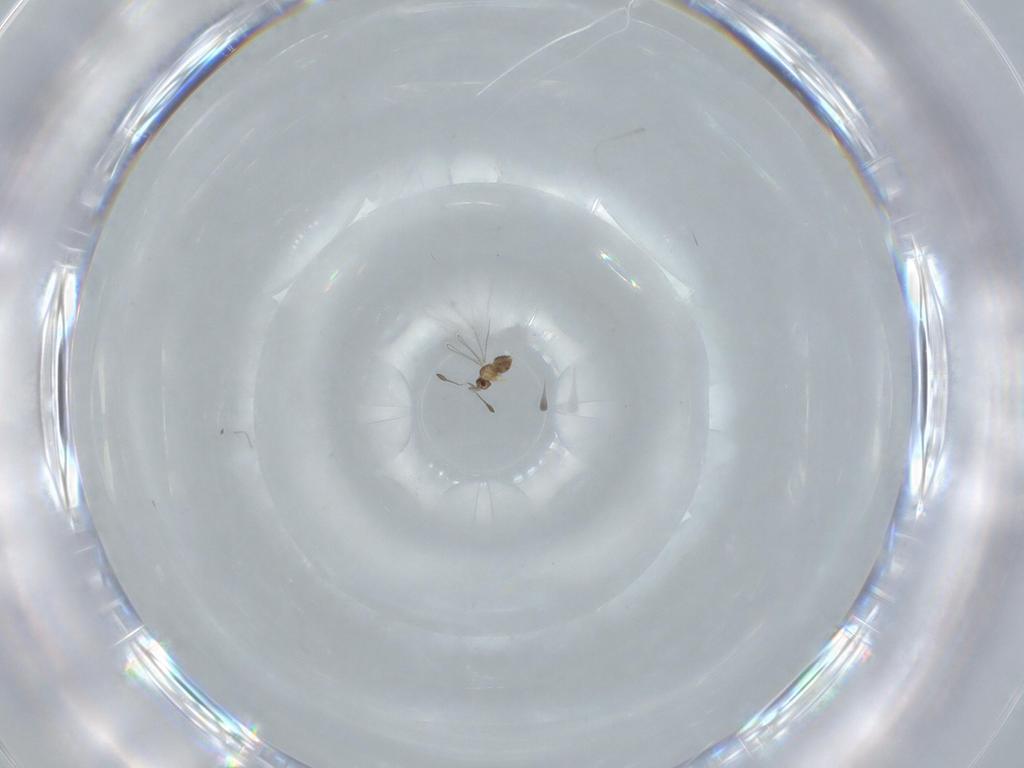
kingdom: Animalia
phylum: Arthropoda
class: Insecta
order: Hymenoptera
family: Mymaridae
